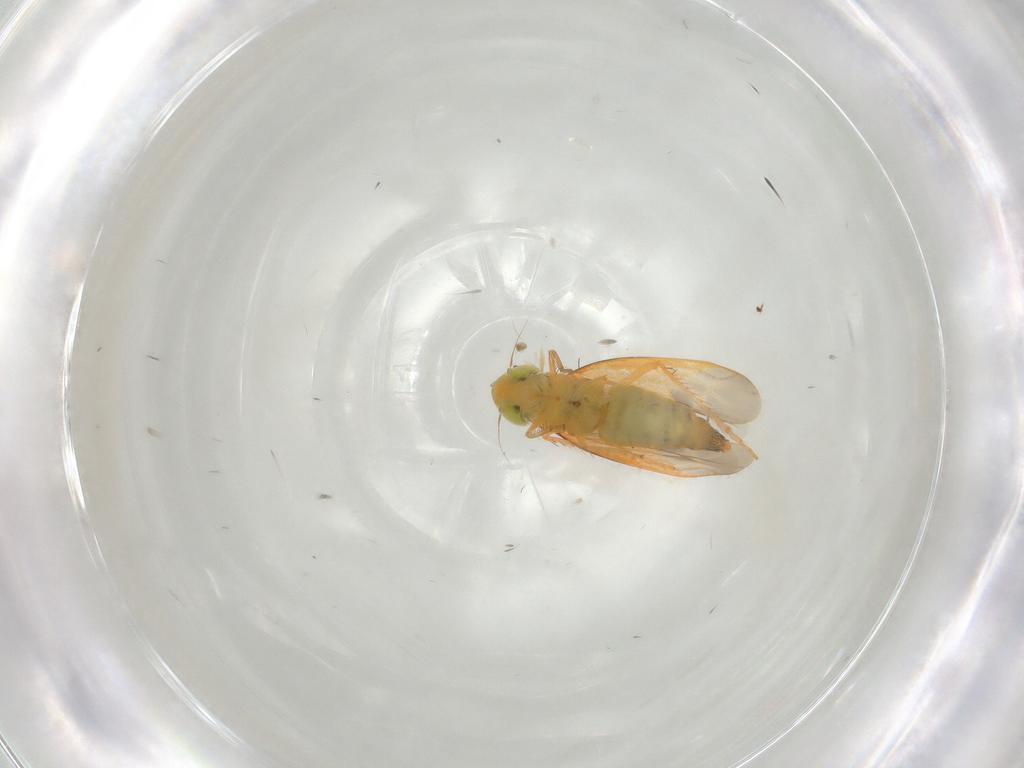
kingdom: Animalia
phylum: Arthropoda
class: Insecta
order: Hemiptera
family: Cicadellidae
